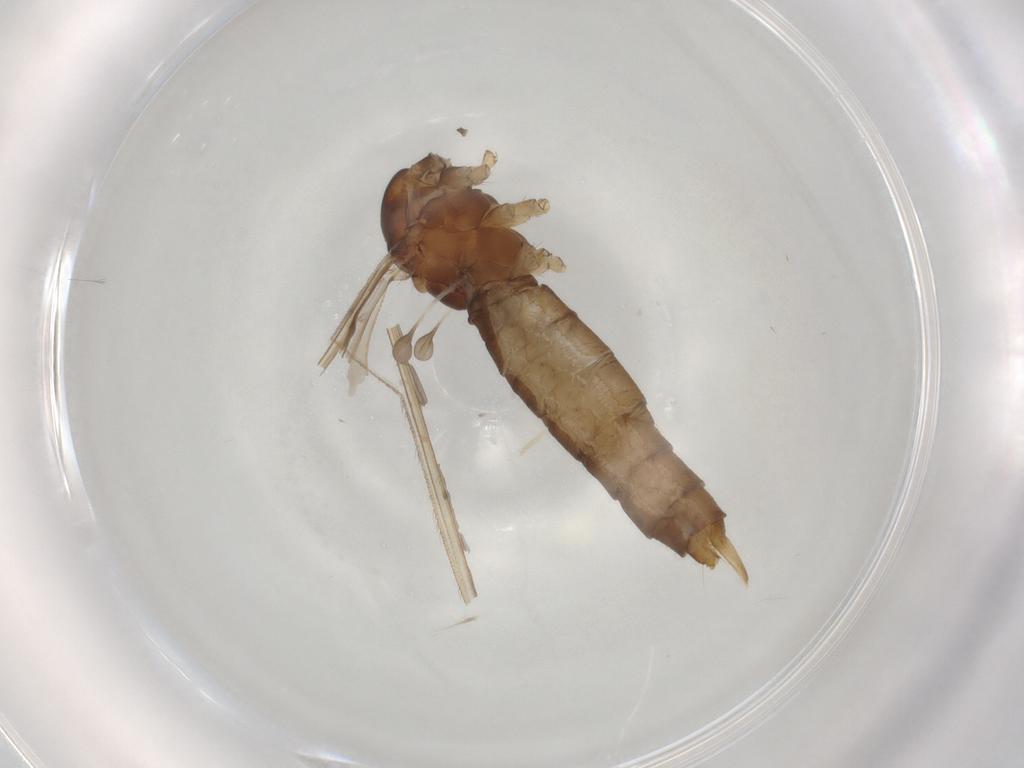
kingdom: Animalia
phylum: Arthropoda
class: Insecta
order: Diptera
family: Limoniidae
